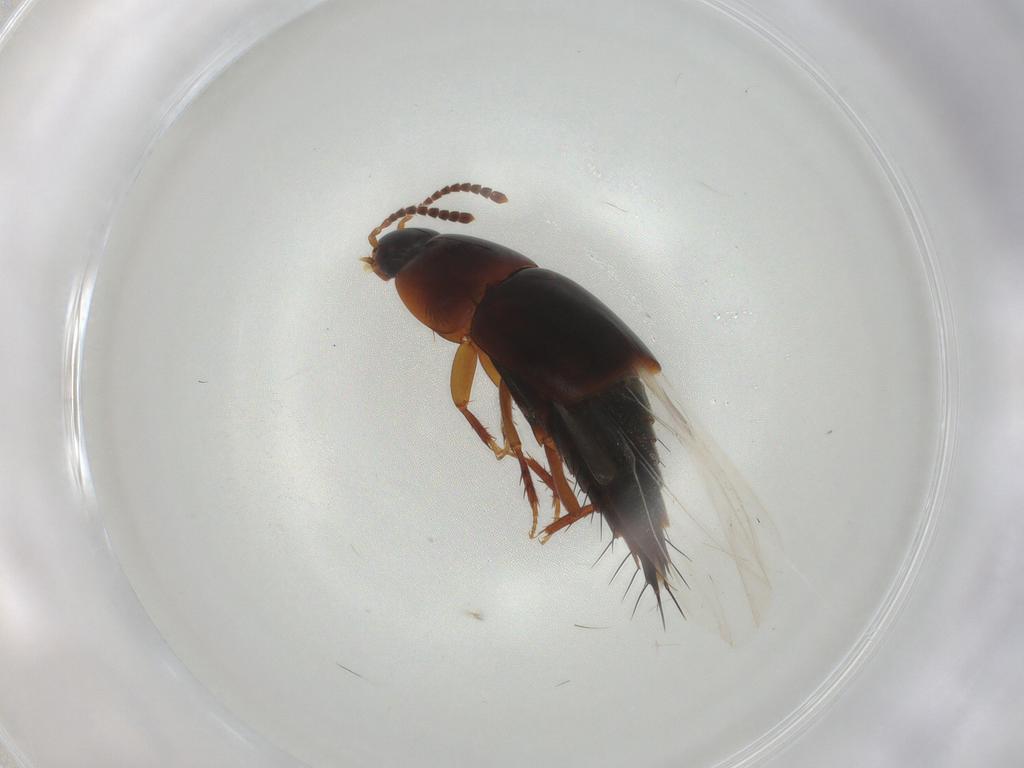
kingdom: Animalia
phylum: Arthropoda
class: Insecta
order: Coleoptera
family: Staphylinidae
